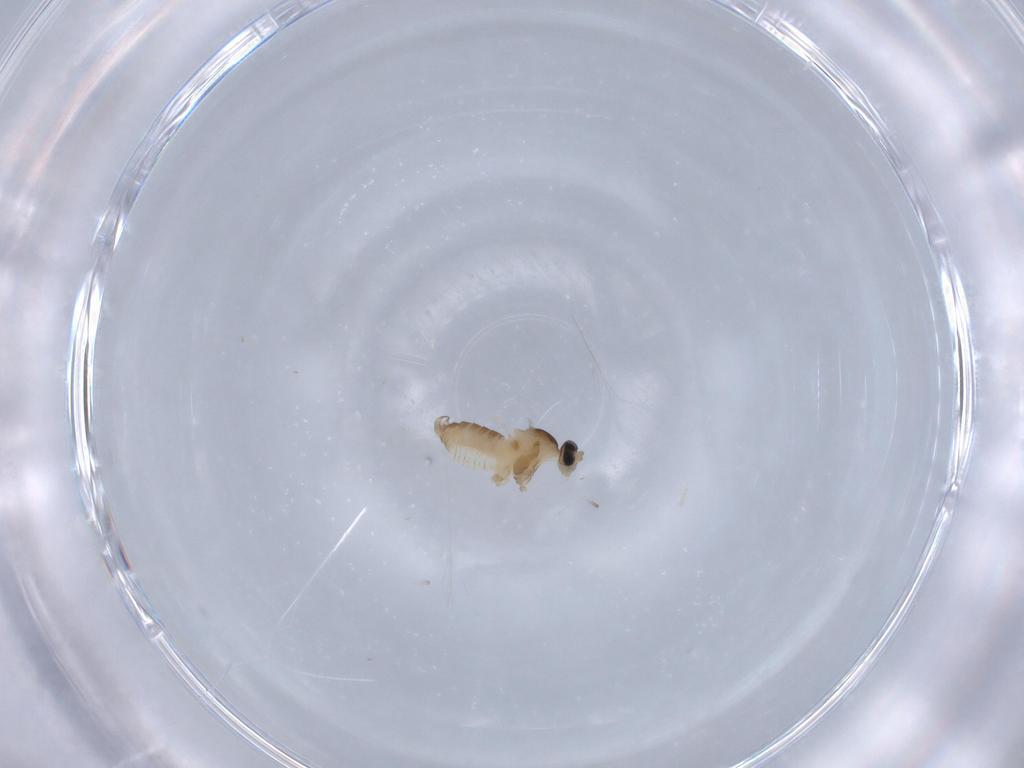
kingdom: Animalia
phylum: Arthropoda
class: Insecta
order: Diptera
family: Cecidomyiidae
